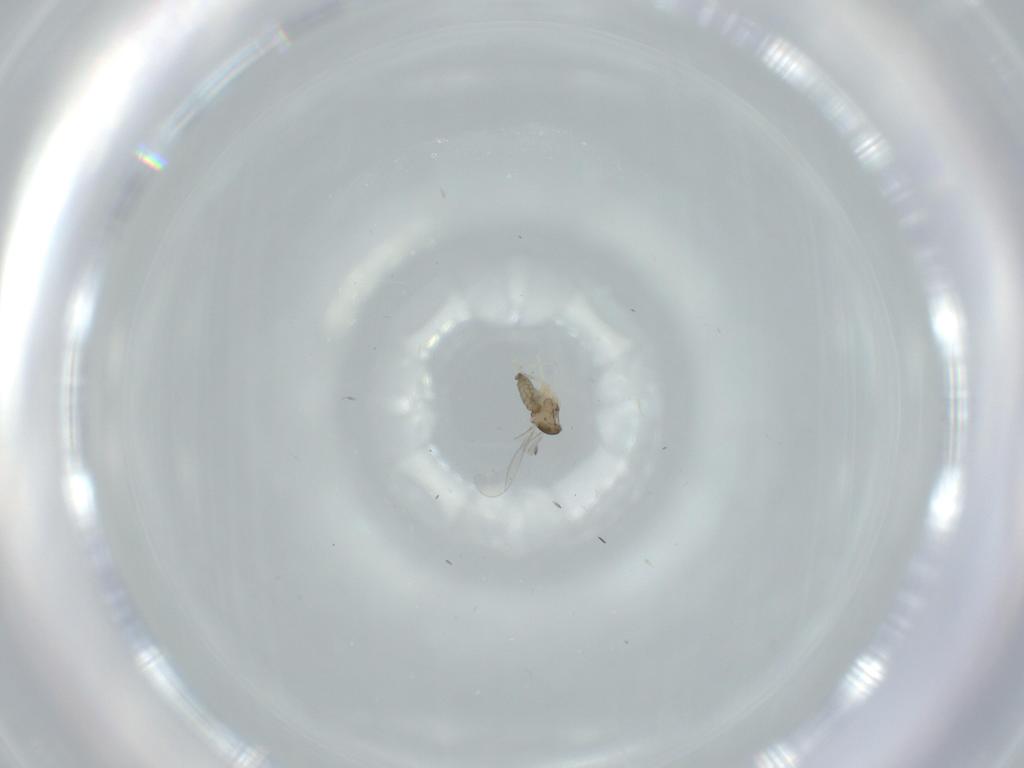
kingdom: Animalia
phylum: Arthropoda
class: Insecta
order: Diptera
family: Cecidomyiidae
